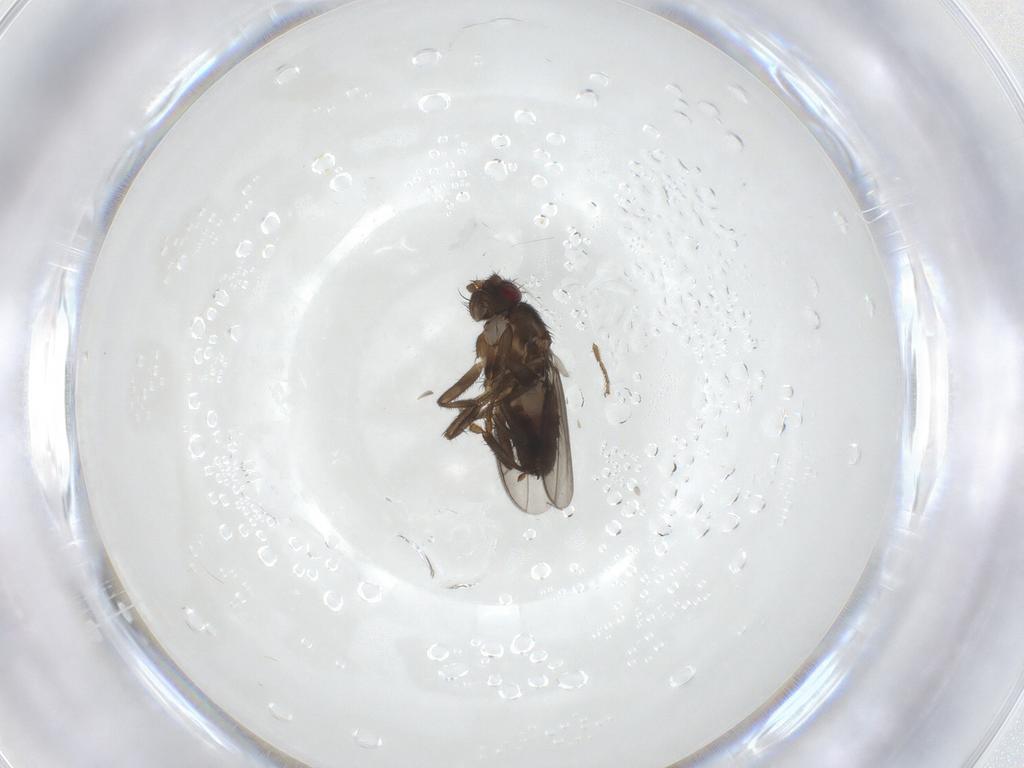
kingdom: Animalia
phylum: Arthropoda
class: Insecta
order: Diptera
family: Sphaeroceridae
